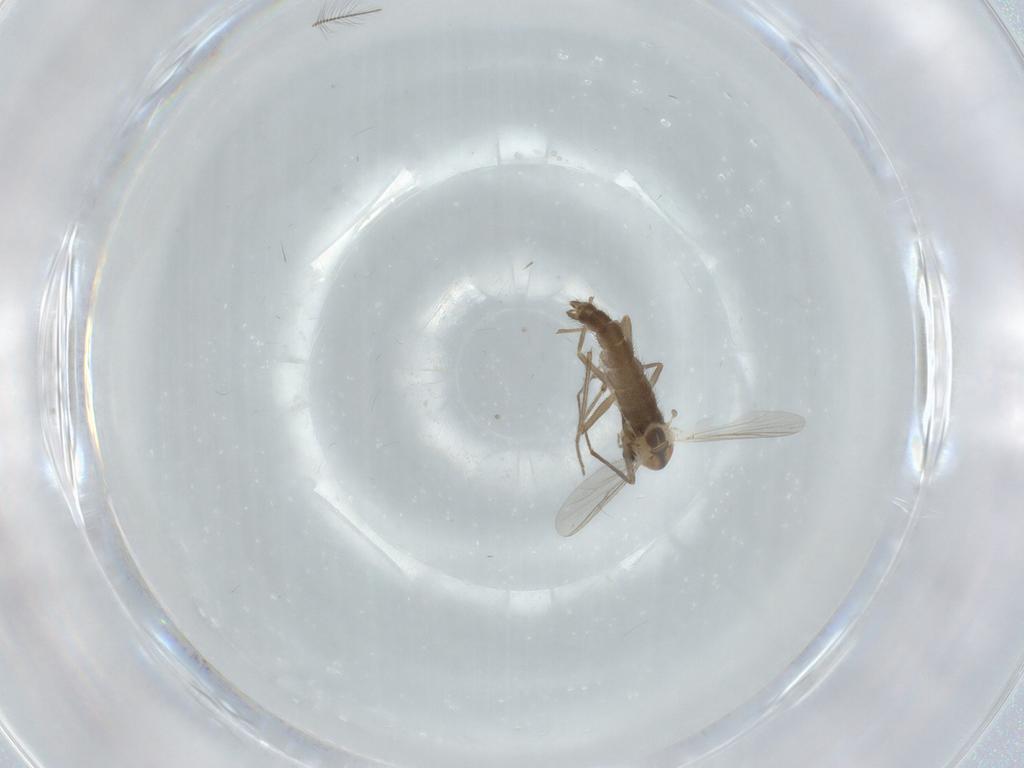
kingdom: Animalia
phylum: Arthropoda
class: Insecta
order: Diptera
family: Chironomidae
